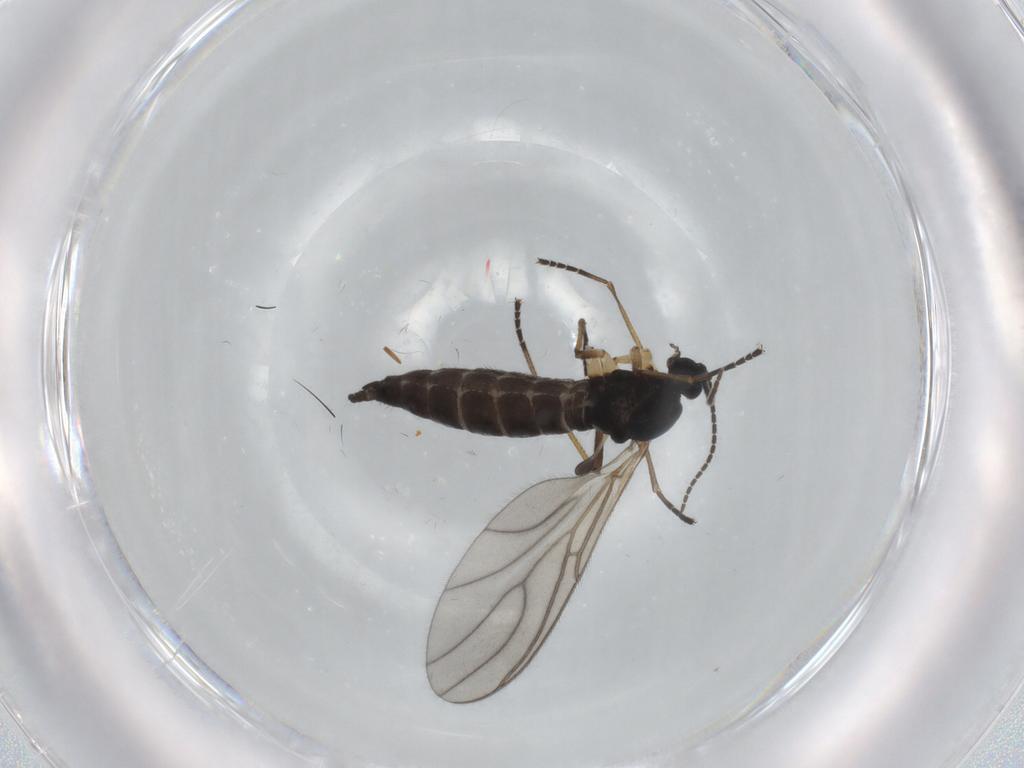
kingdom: Animalia
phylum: Arthropoda
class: Insecta
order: Diptera
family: Sciaridae
